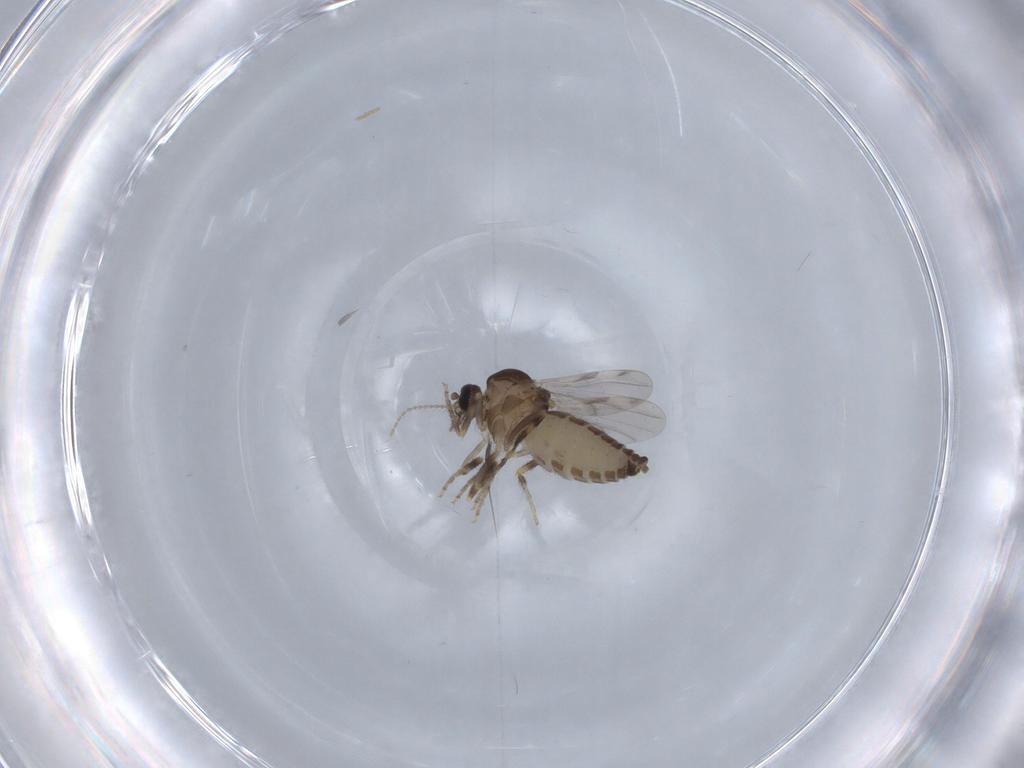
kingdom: Animalia
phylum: Arthropoda
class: Insecta
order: Diptera
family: Ceratopogonidae
